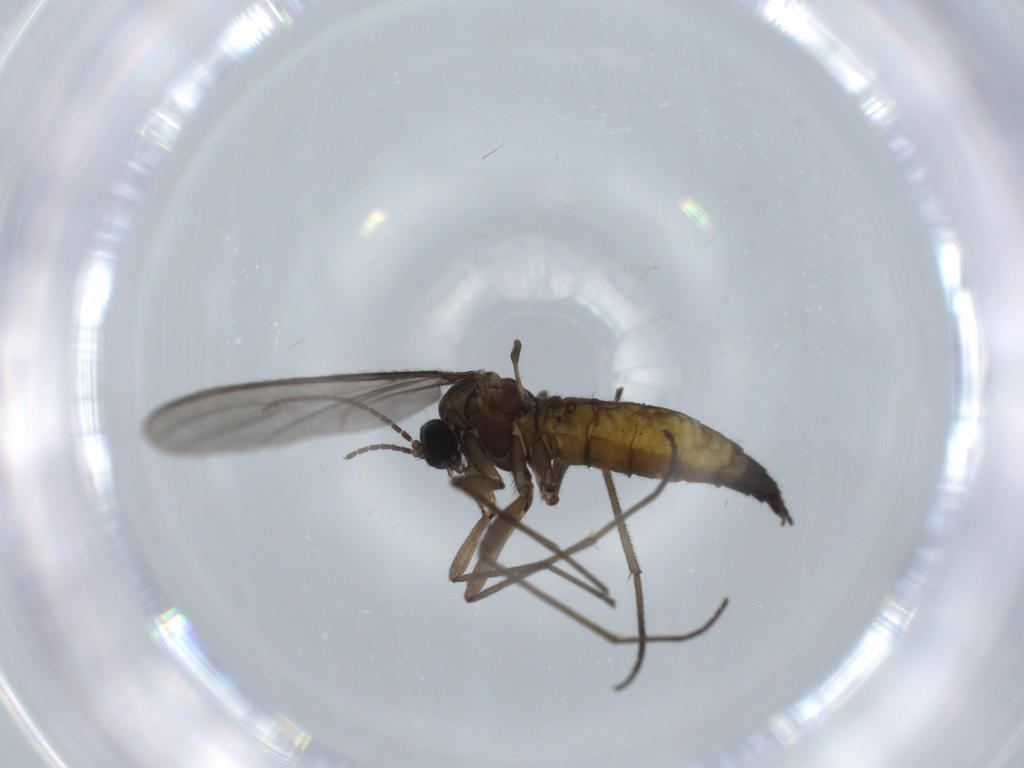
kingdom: Animalia
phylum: Arthropoda
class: Insecta
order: Diptera
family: Sciaridae
